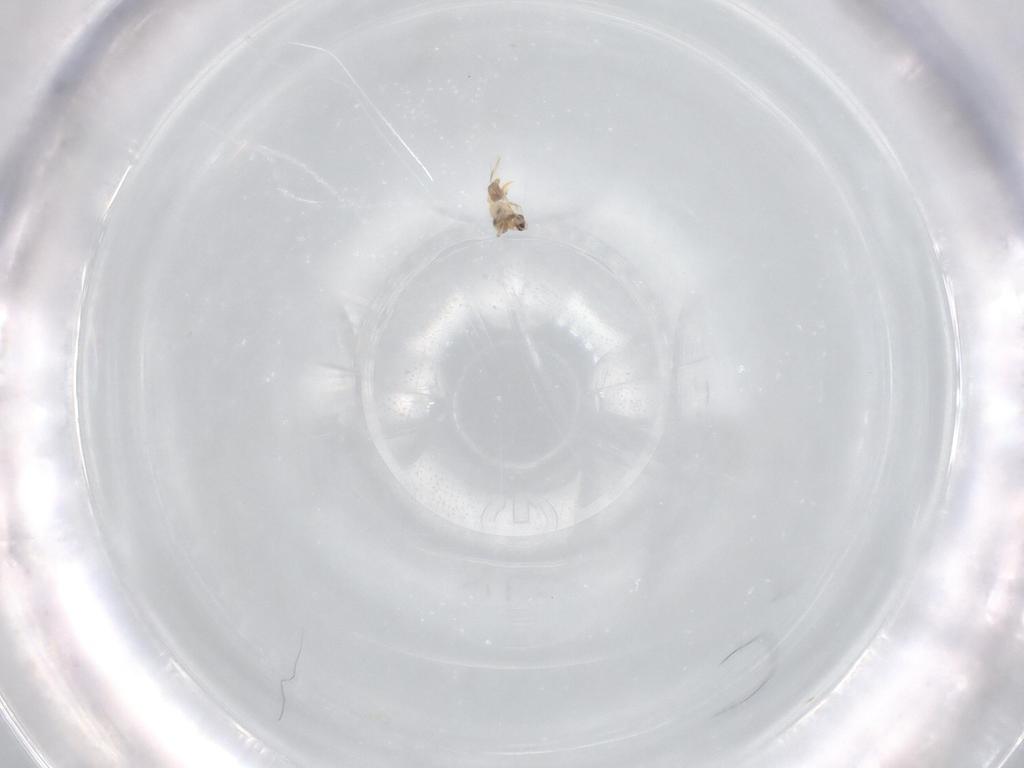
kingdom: Animalia
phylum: Arthropoda
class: Insecta
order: Thysanoptera
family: Thripidae
